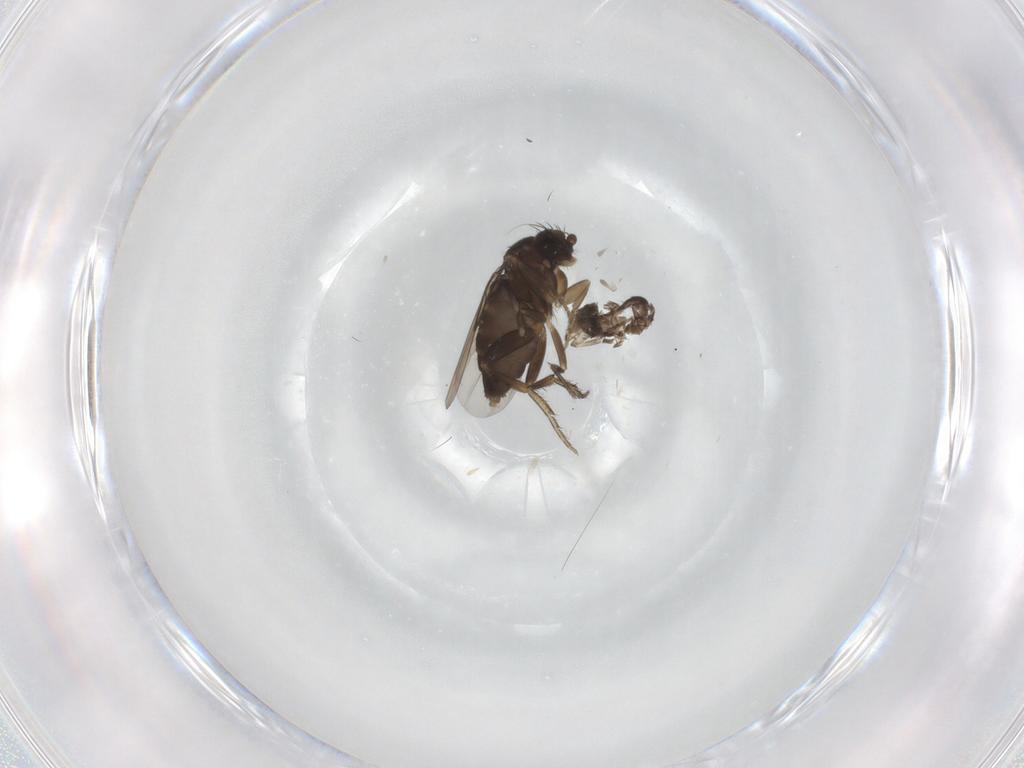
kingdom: Animalia
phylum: Arthropoda
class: Insecta
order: Diptera
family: Phoridae
